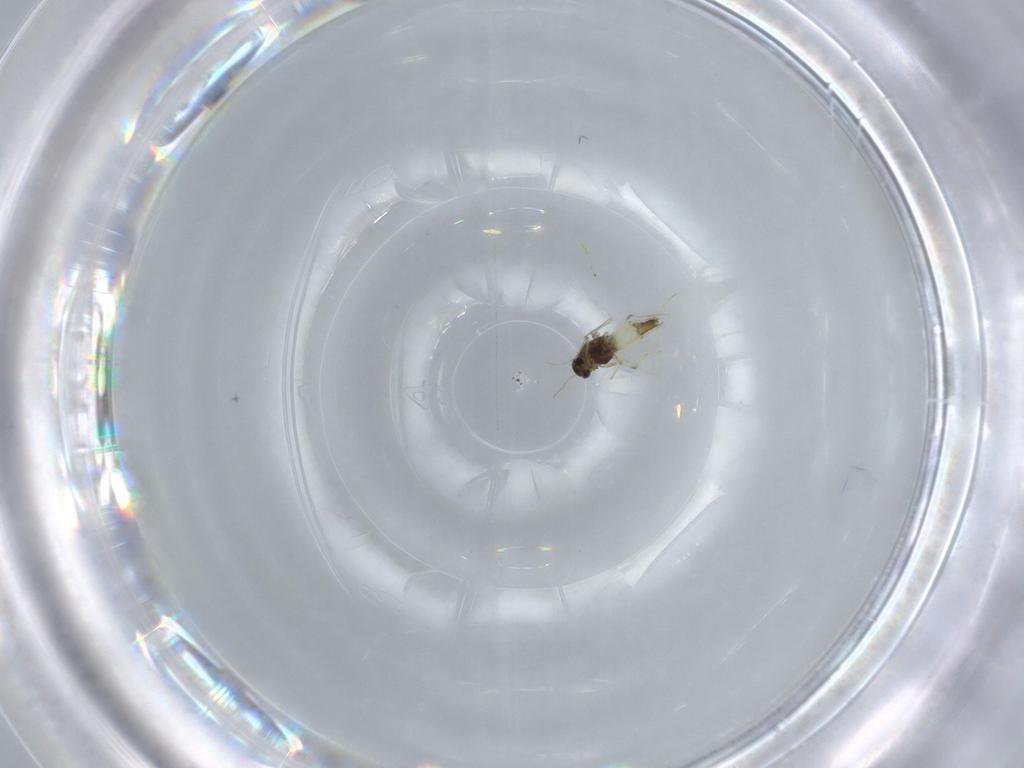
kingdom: Animalia
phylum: Arthropoda
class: Insecta
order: Diptera
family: Chironomidae
